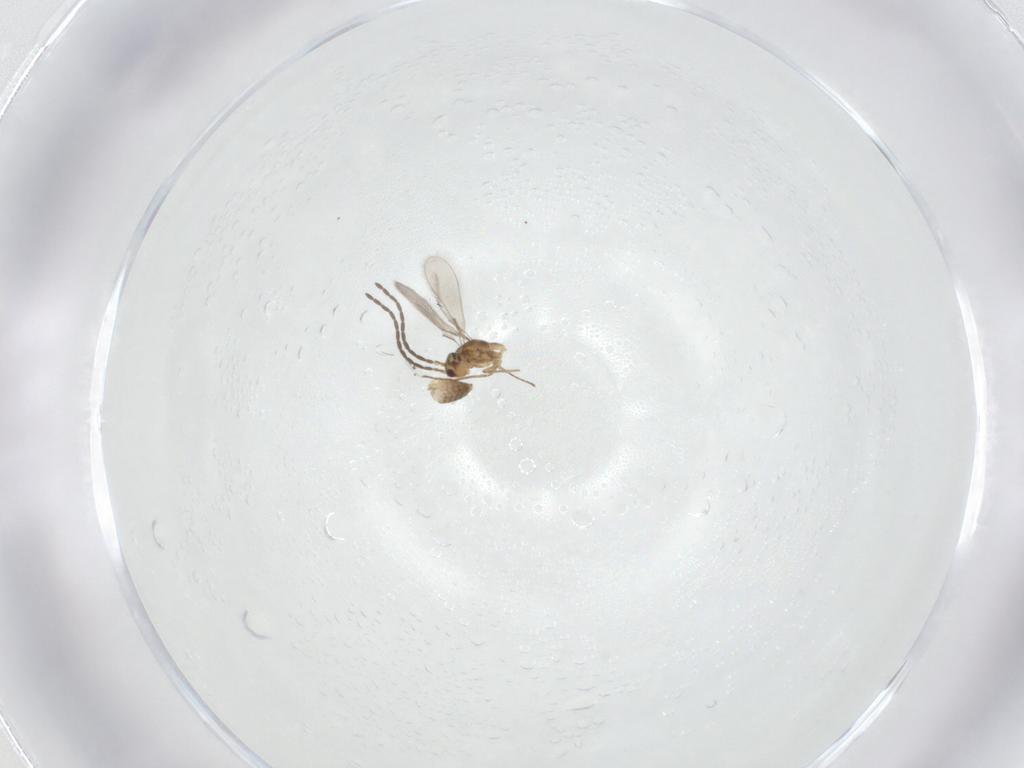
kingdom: Animalia
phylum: Arthropoda
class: Insecta
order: Hymenoptera
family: Mymaridae
